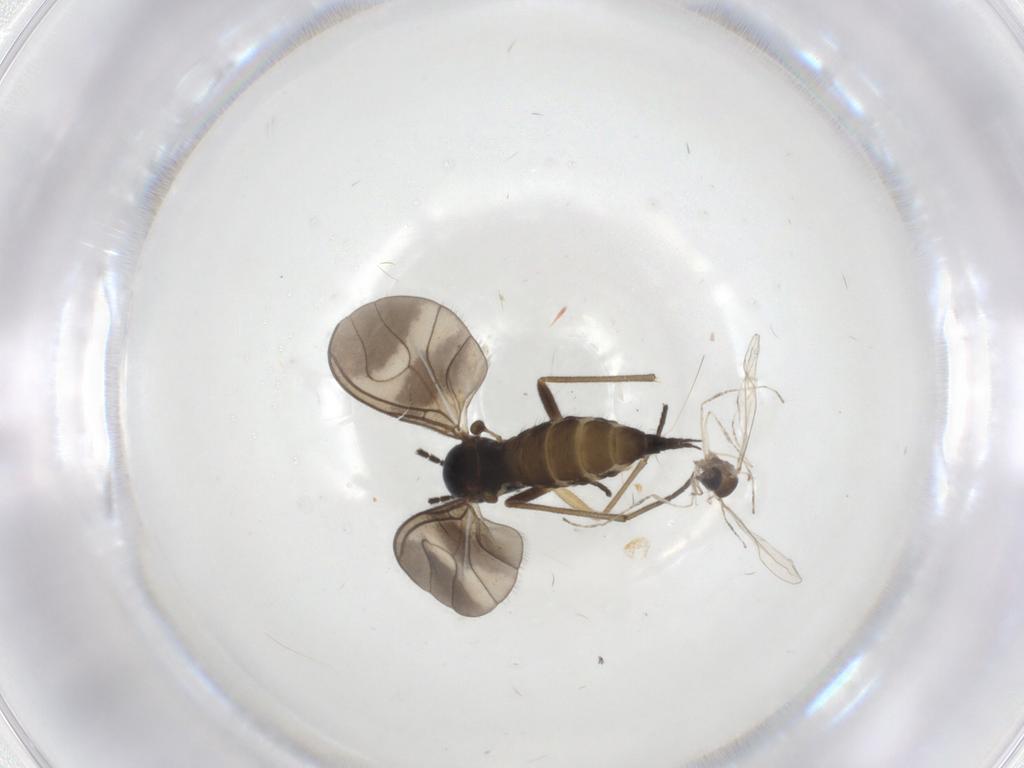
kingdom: Animalia
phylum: Arthropoda
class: Insecta
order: Diptera
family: Sciaridae
